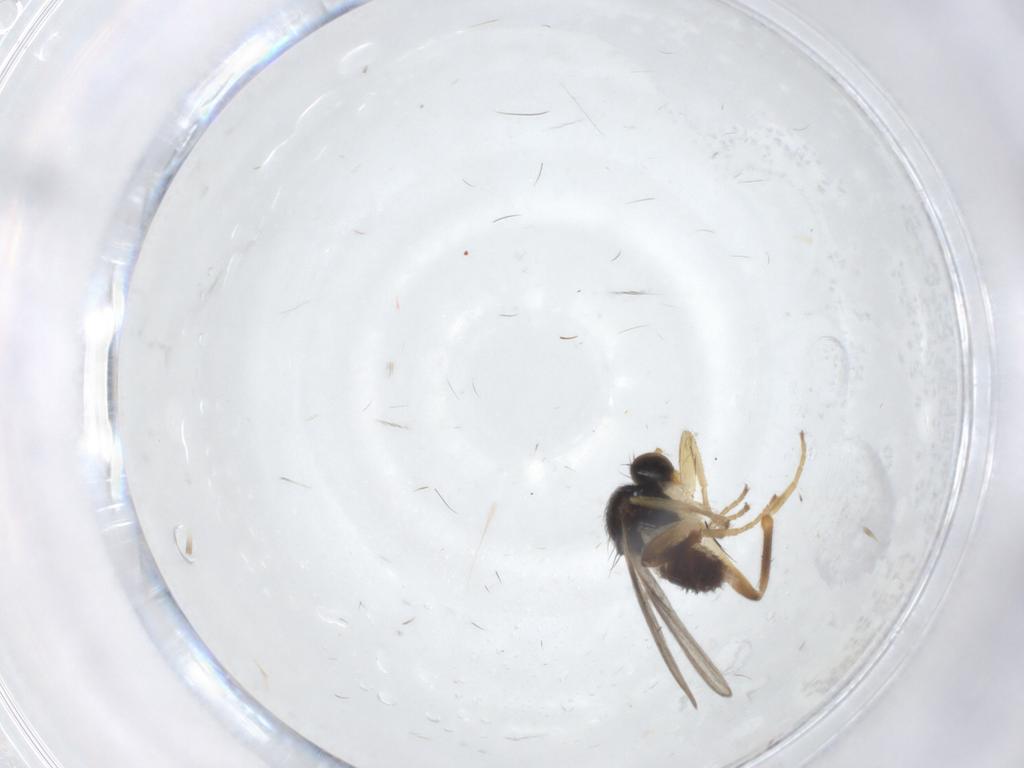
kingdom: Animalia
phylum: Arthropoda
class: Insecta
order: Diptera
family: Hybotidae
